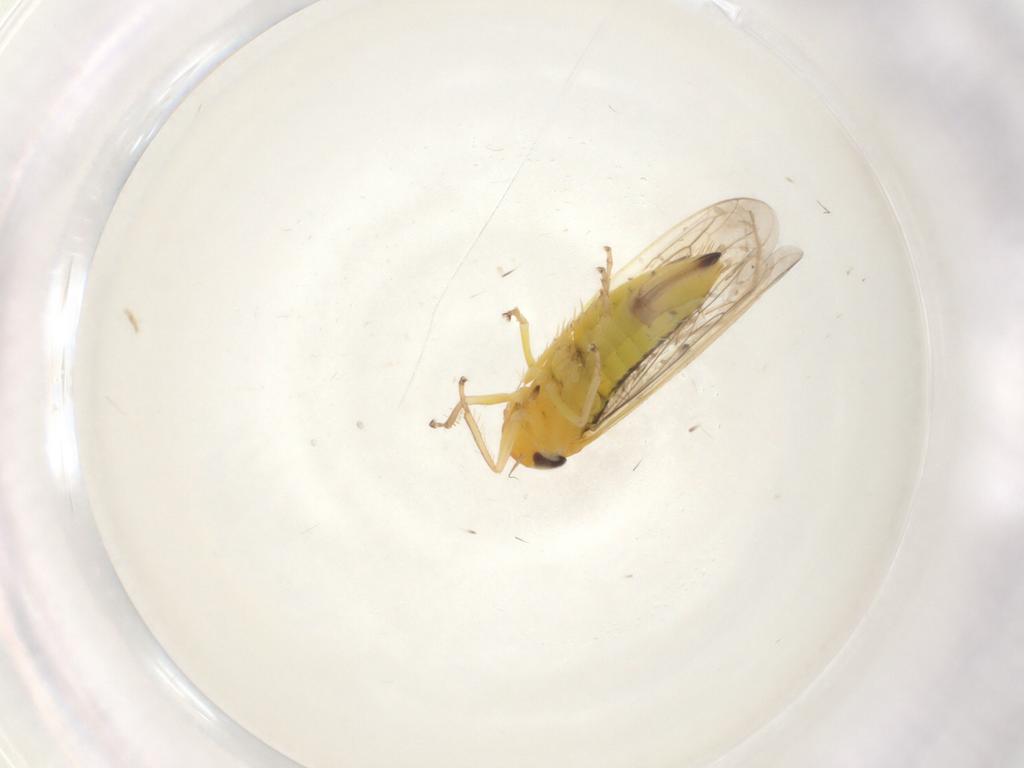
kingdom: Animalia
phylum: Arthropoda
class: Insecta
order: Hemiptera
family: Cicadellidae
